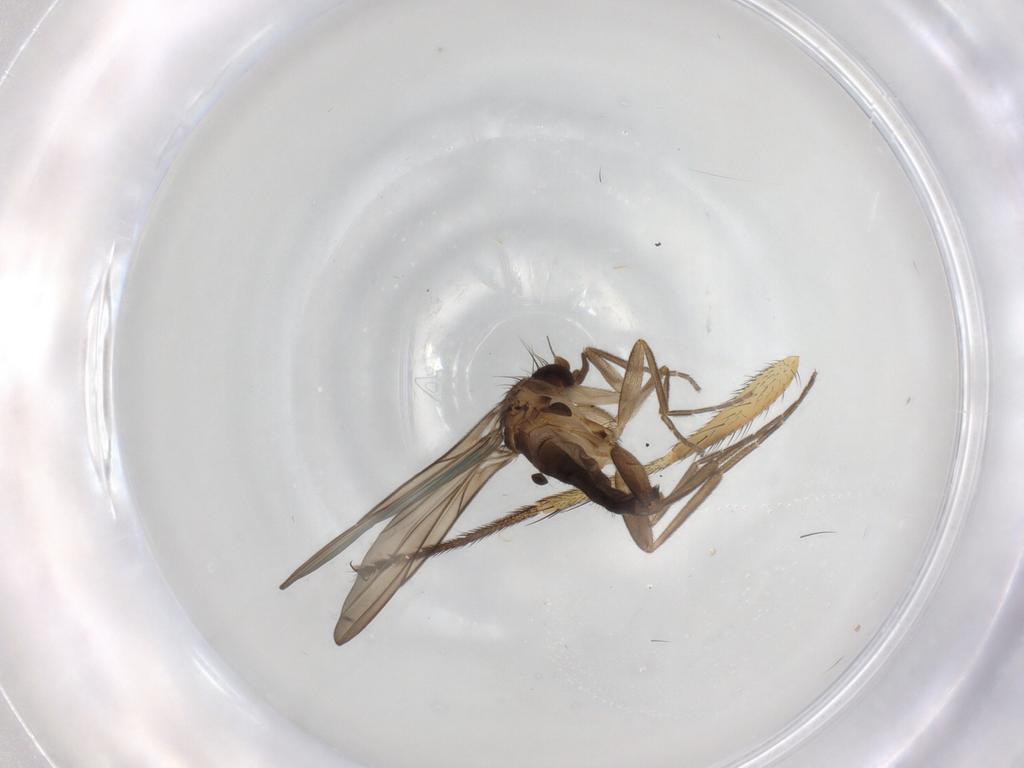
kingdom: Animalia
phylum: Arthropoda
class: Insecta
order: Diptera
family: Muscidae
